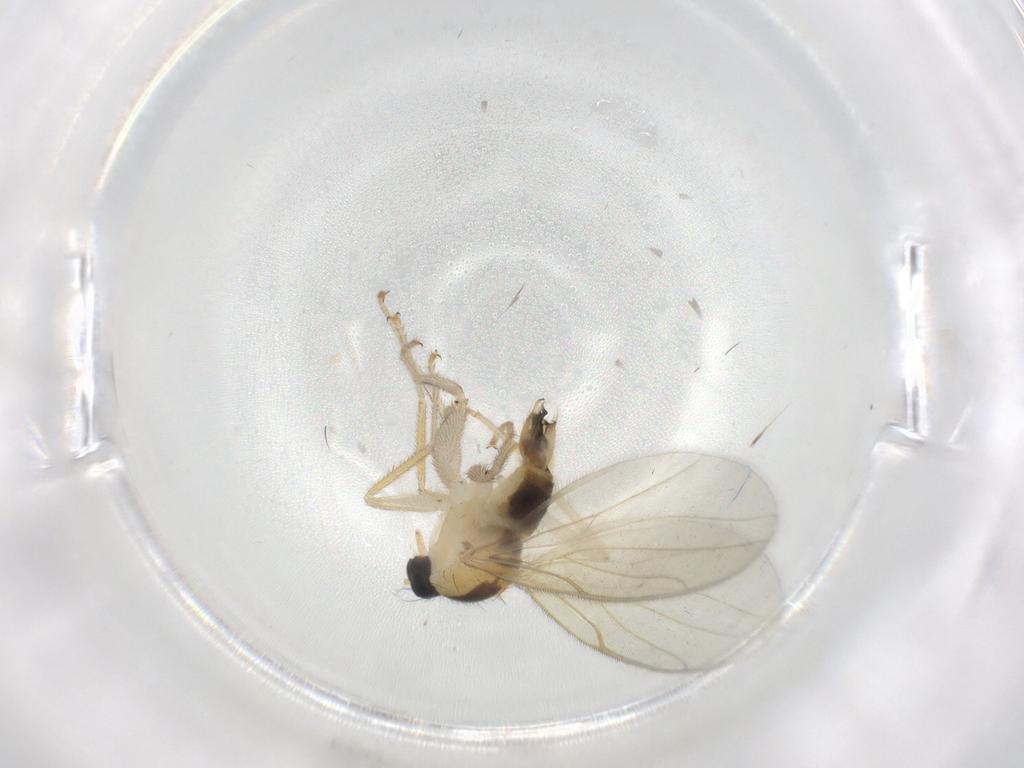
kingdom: Animalia
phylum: Arthropoda
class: Insecta
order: Diptera
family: Hybotidae
